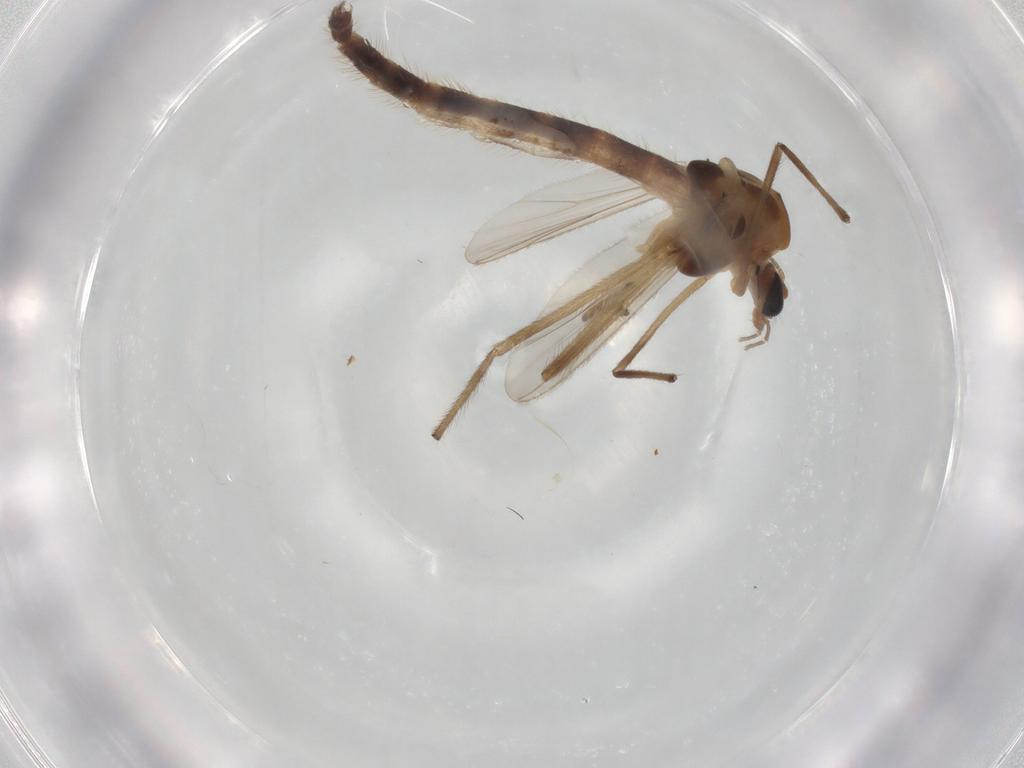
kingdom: Animalia
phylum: Arthropoda
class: Insecta
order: Diptera
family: Chironomidae
